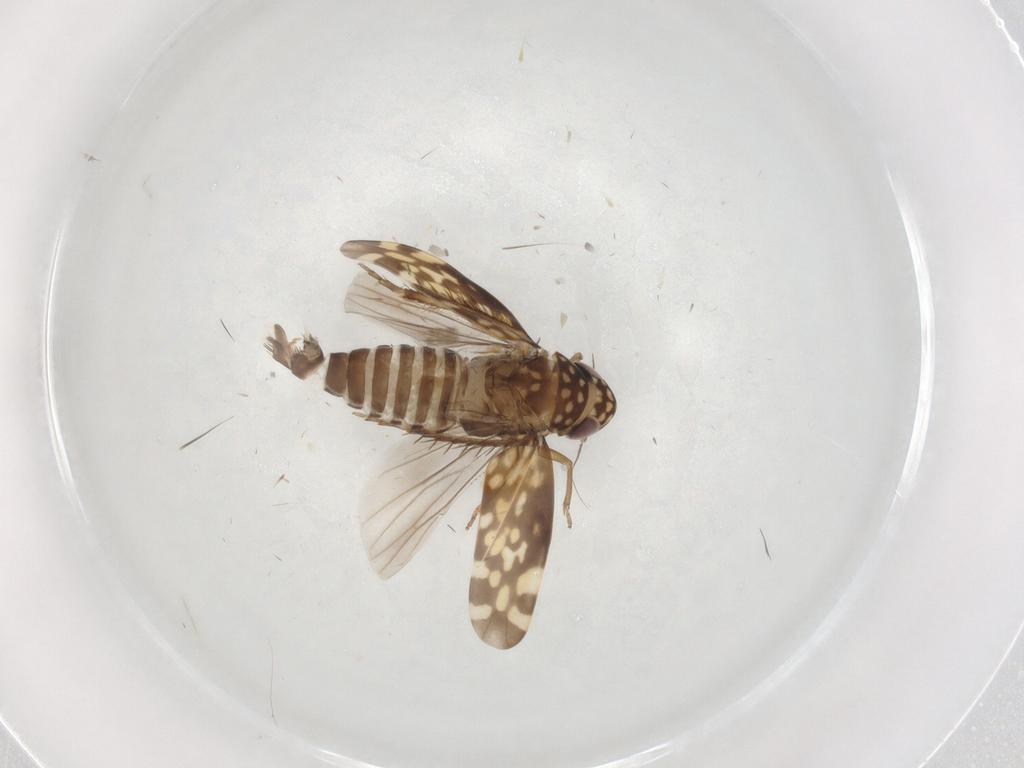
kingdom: Animalia
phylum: Arthropoda
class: Insecta
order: Hemiptera
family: Cicadellidae
